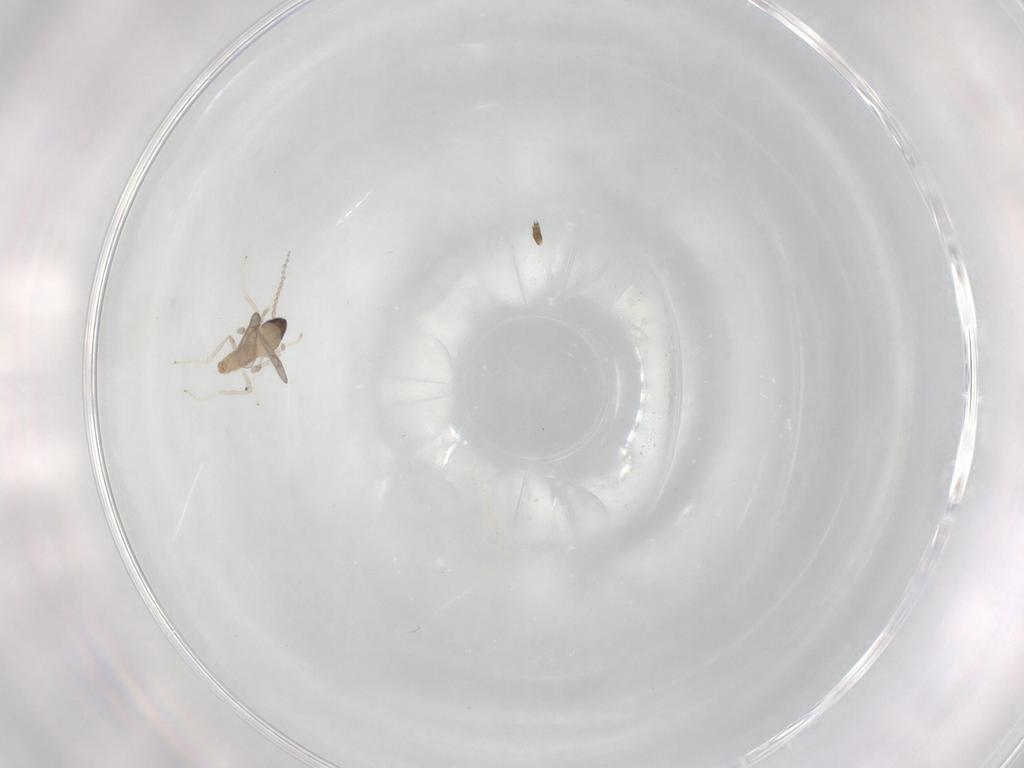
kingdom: Animalia
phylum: Arthropoda
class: Insecta
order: Diptera
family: Cecidomyiidae
